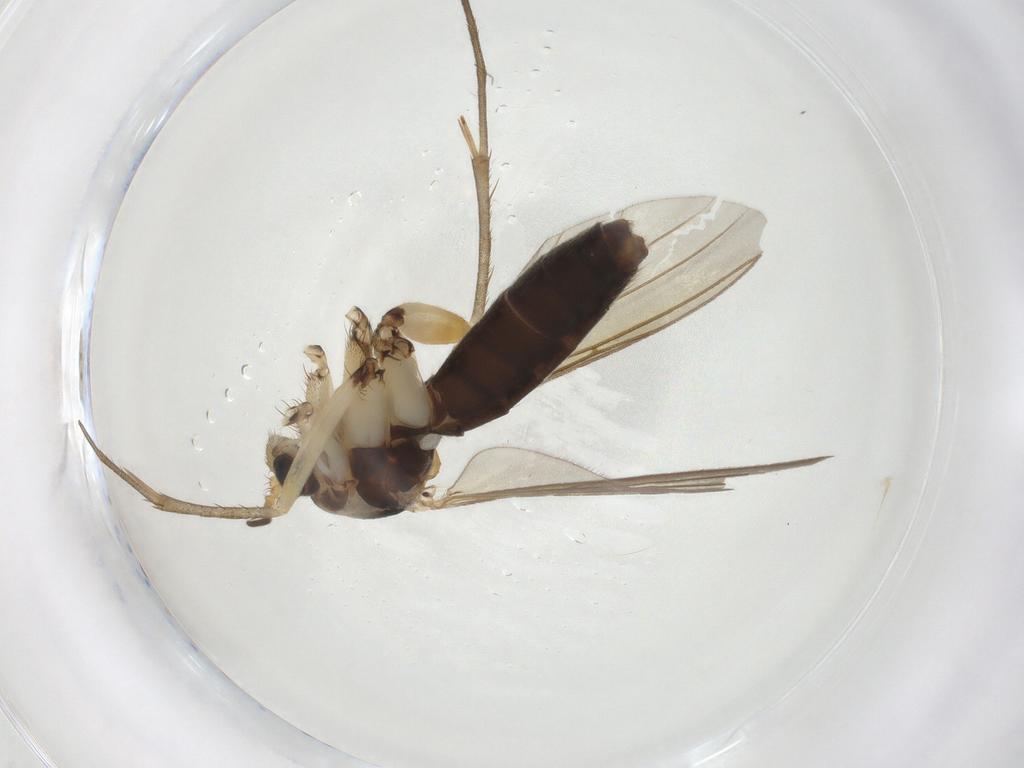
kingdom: Animalia
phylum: Arthropoda
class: Insecta
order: Diptera
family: Mycetophilidae
